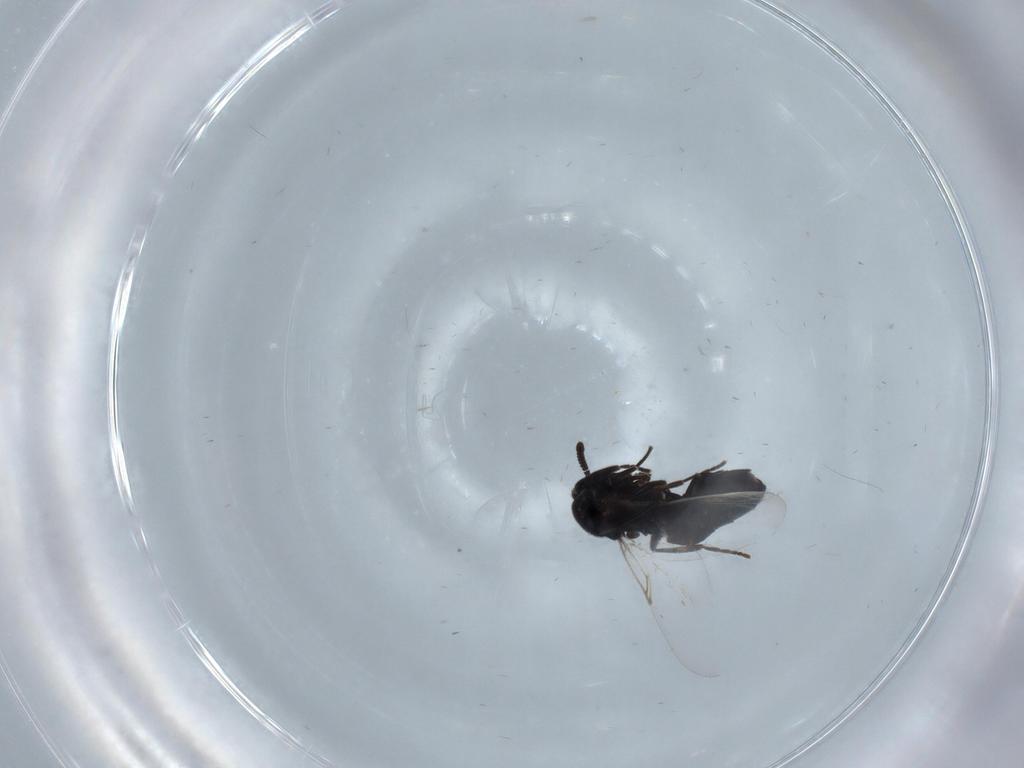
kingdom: Animalia
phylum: Arthropoda
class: Insecta
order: Diptera
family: Scatopsidae
